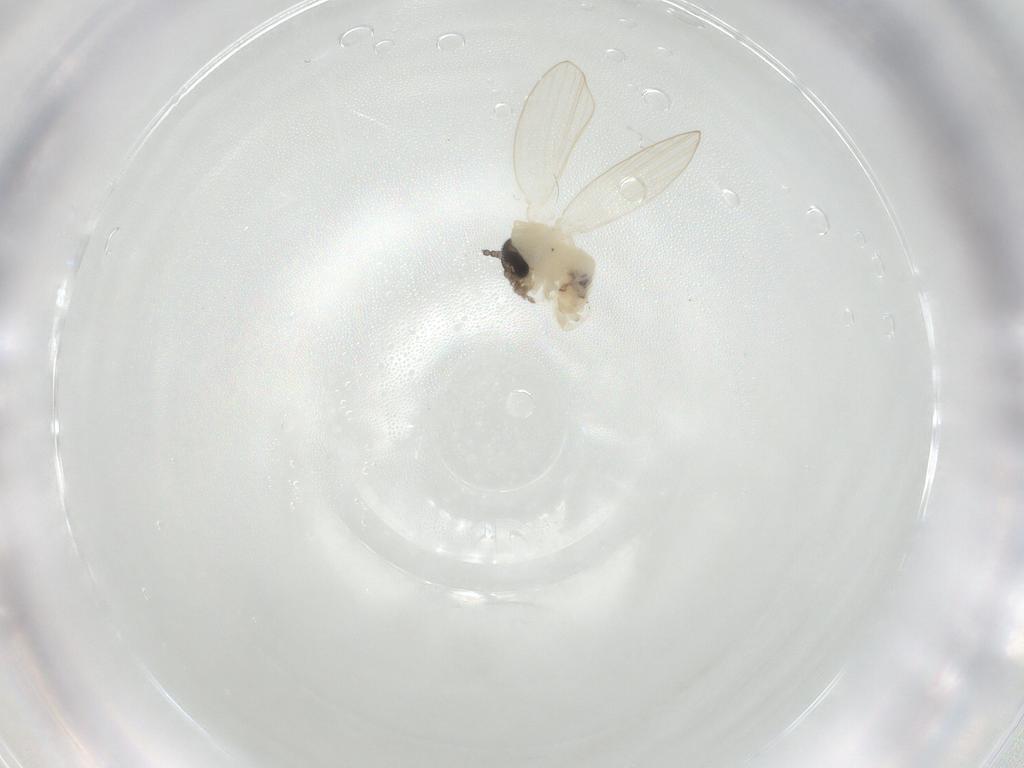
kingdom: Animalia
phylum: Arthropoda
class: Insecta
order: Diptera
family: Psychodidae
